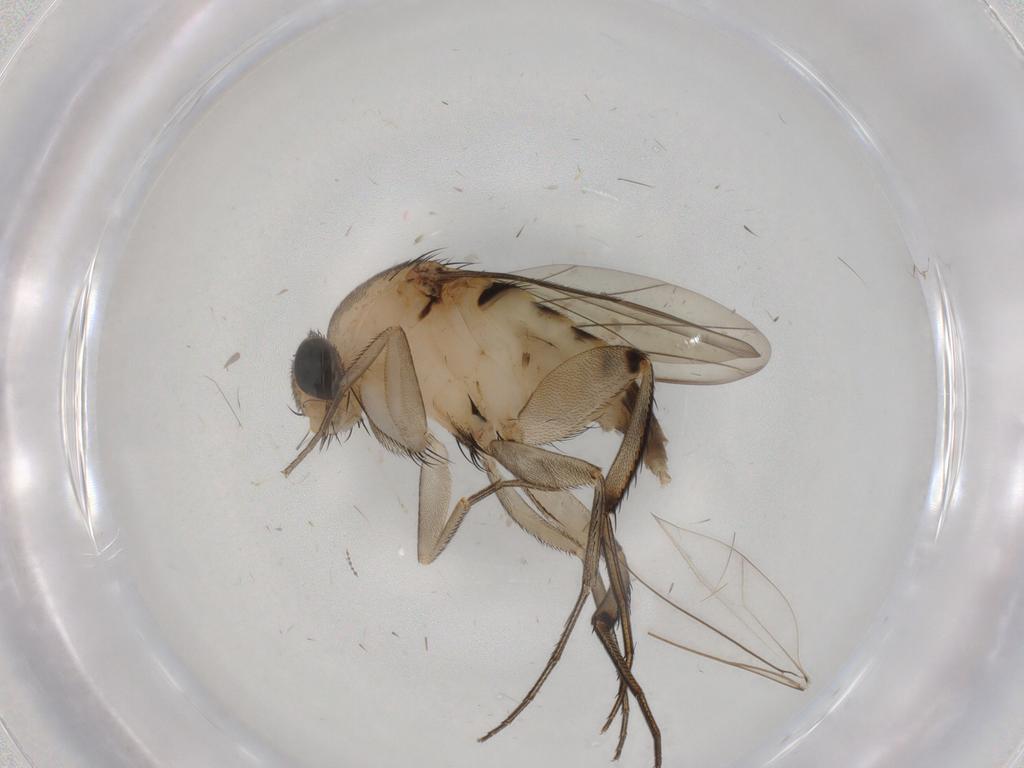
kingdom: Animalia
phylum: Arthropoda
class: Insecta
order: Diptera
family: Phoridae
